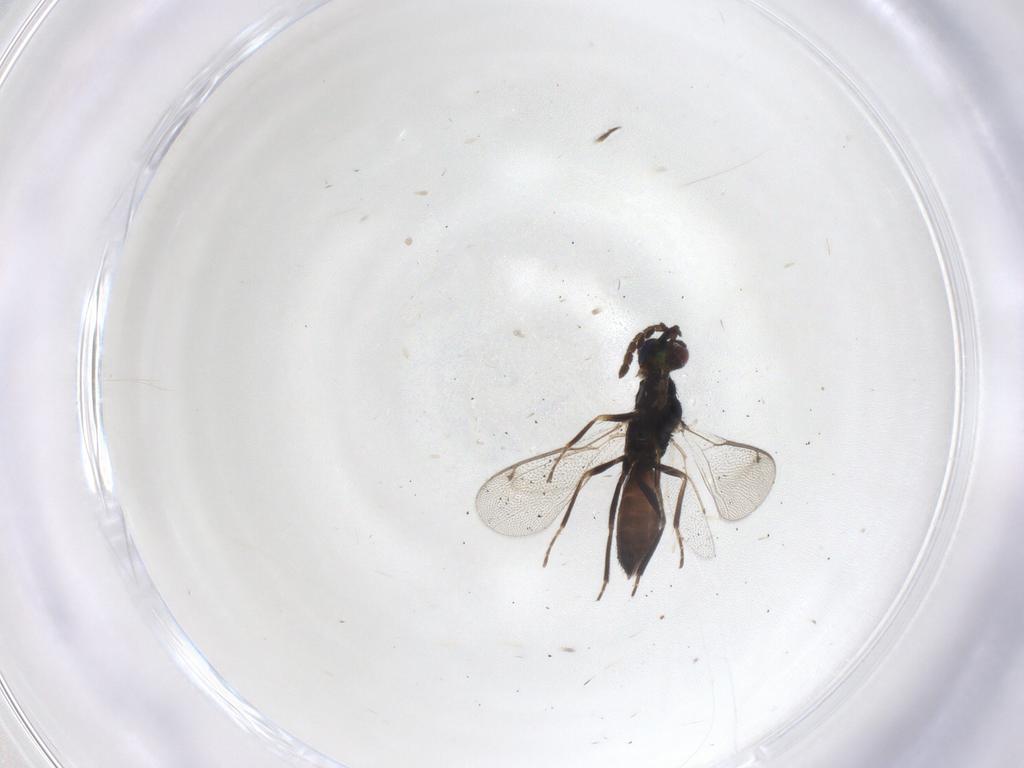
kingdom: Animalia
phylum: Arthropoda
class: Insecta
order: Hymenoptera
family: Eulophidae
